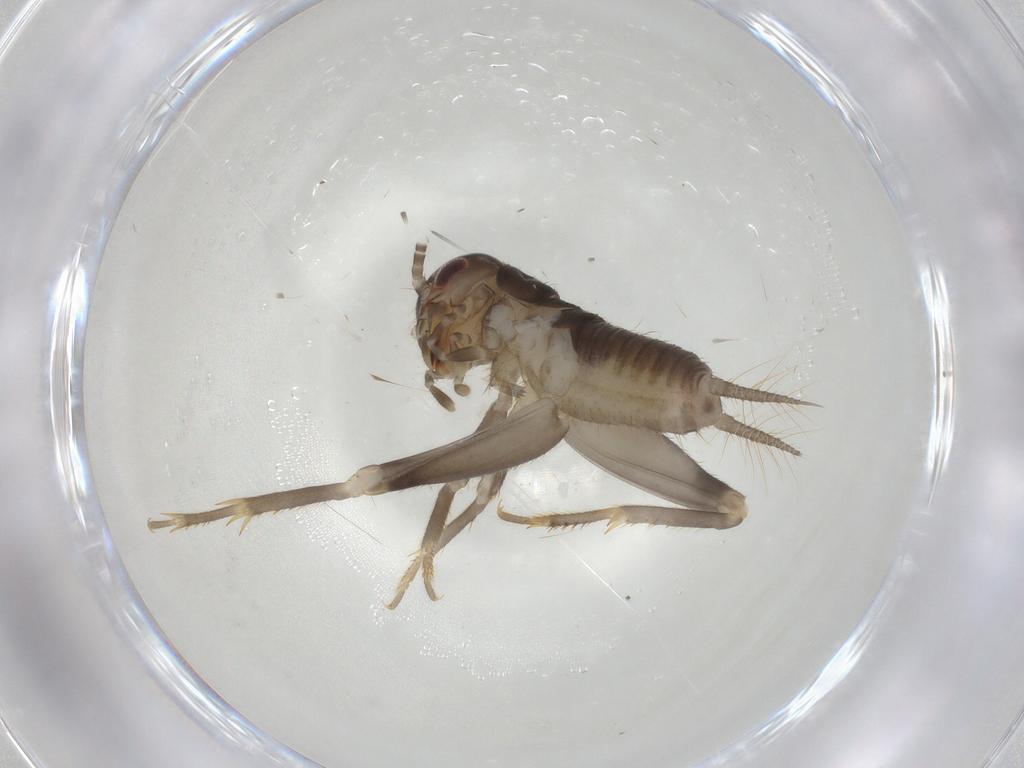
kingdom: Animalia
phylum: Arthropoda
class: Insecta
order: Orthoptera
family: Gryllidae
